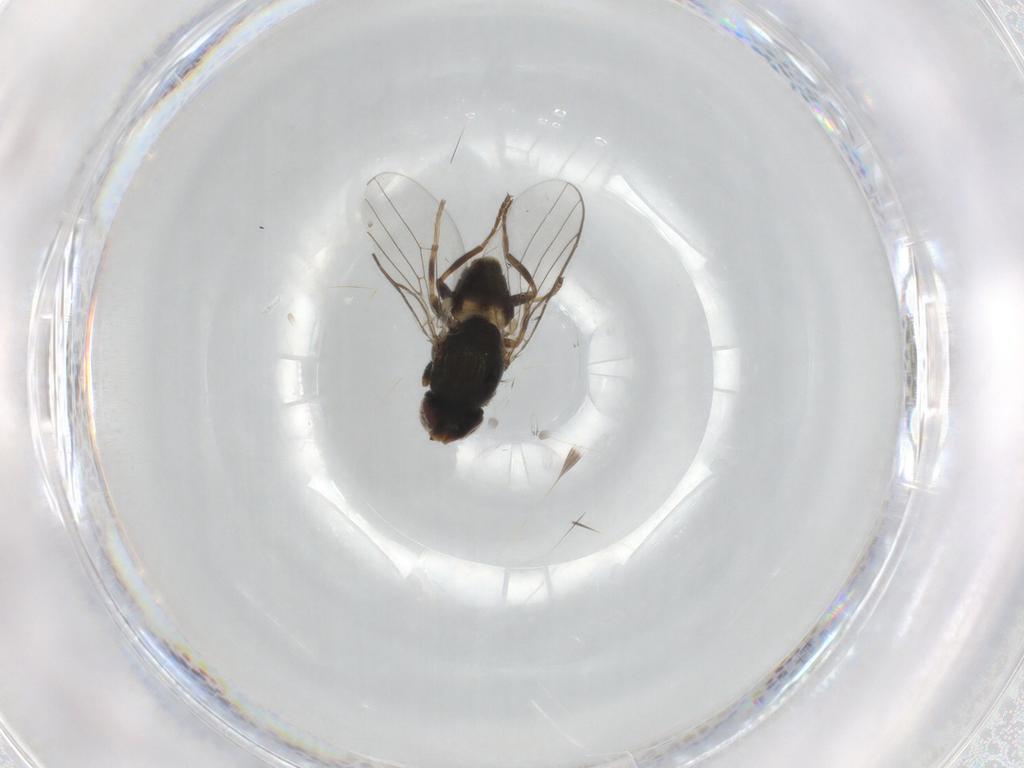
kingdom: Animalia
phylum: Arthropoda
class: Insecta
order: Diptera
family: Chloropidae
